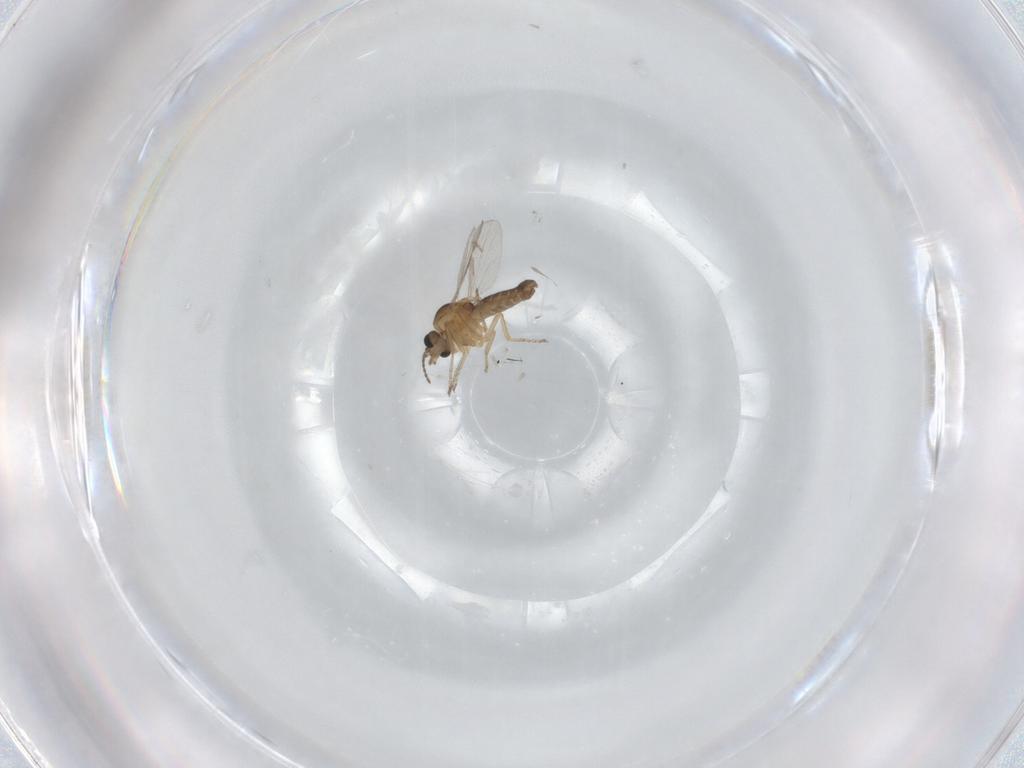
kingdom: Animalia
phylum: Arthropoda
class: Insecta
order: Diptera
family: Ceratopogonidae
